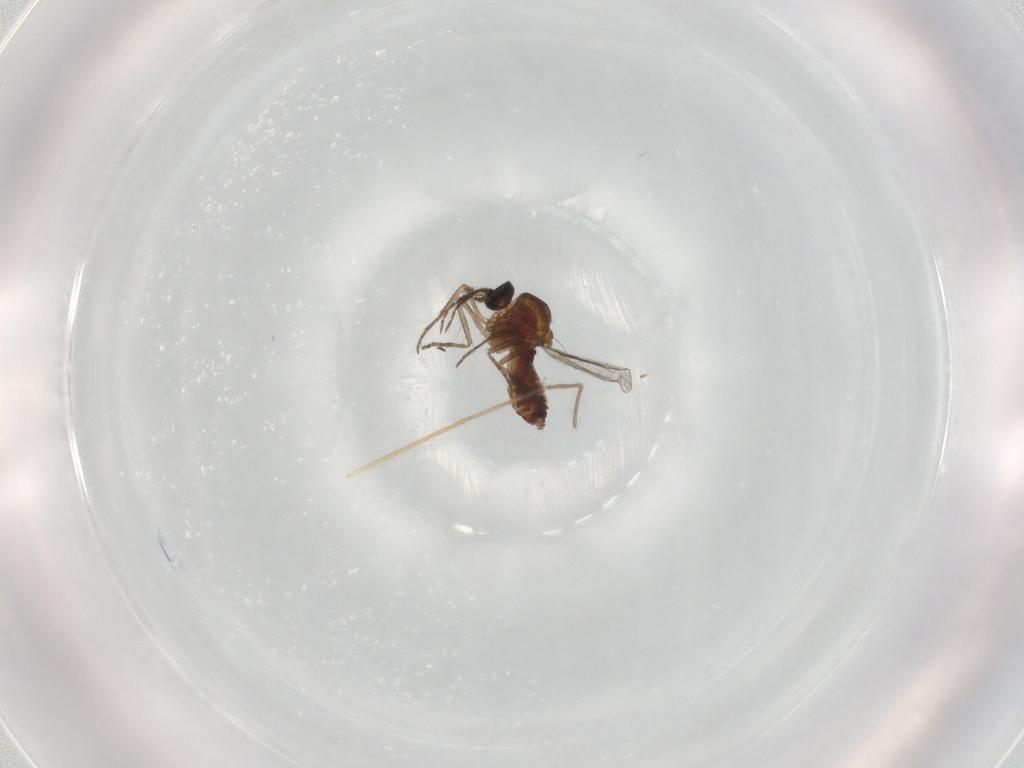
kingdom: Animalia
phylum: Arthropoda
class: Insecta
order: Diptera
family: Ceratopogonidae
